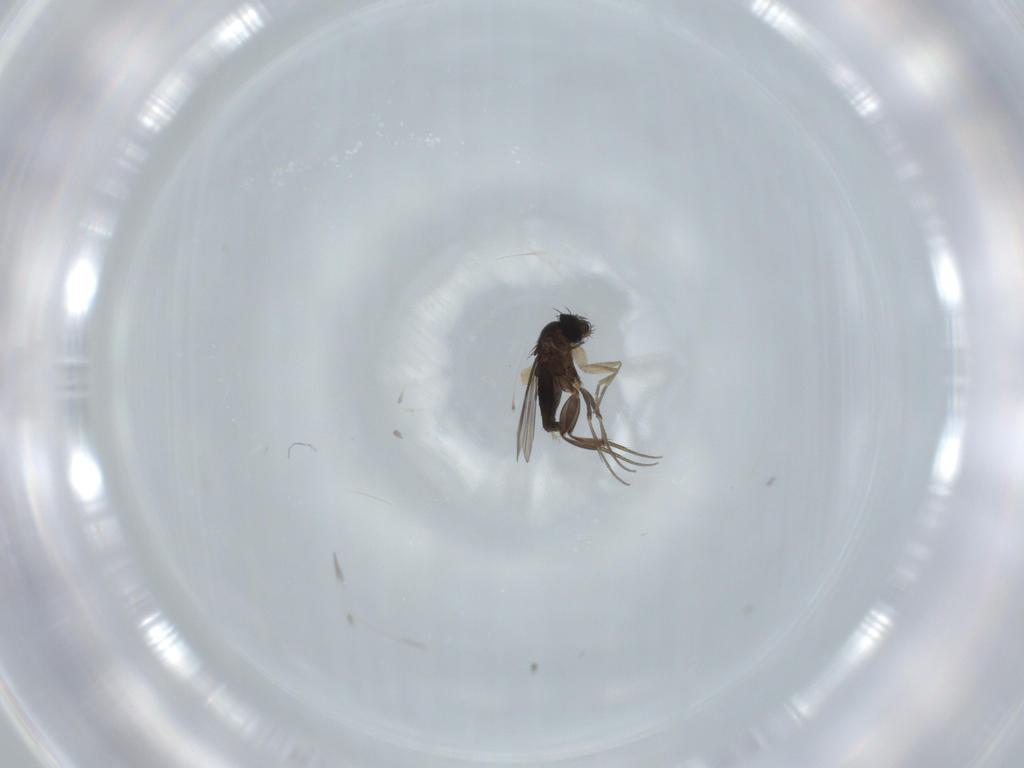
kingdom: Animalia
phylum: Arthropoda
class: Insecta
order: Diptera
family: Phoridae
